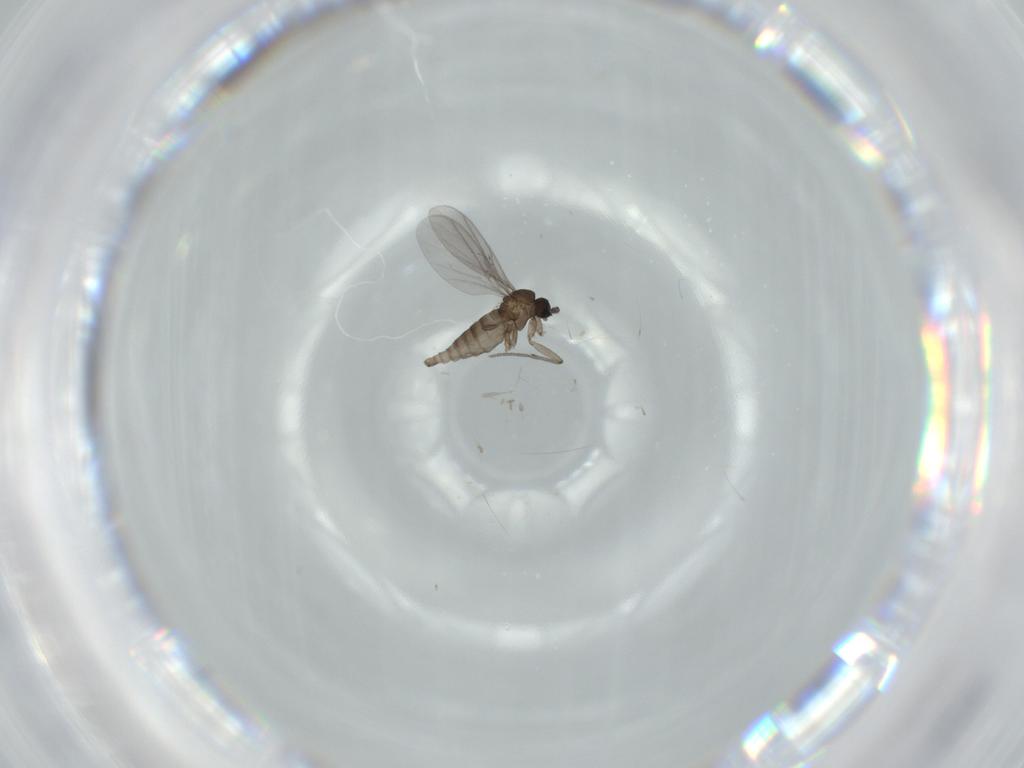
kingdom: Animalia
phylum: Arthropoda
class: Insecta
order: Diptera
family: Sciaridae
